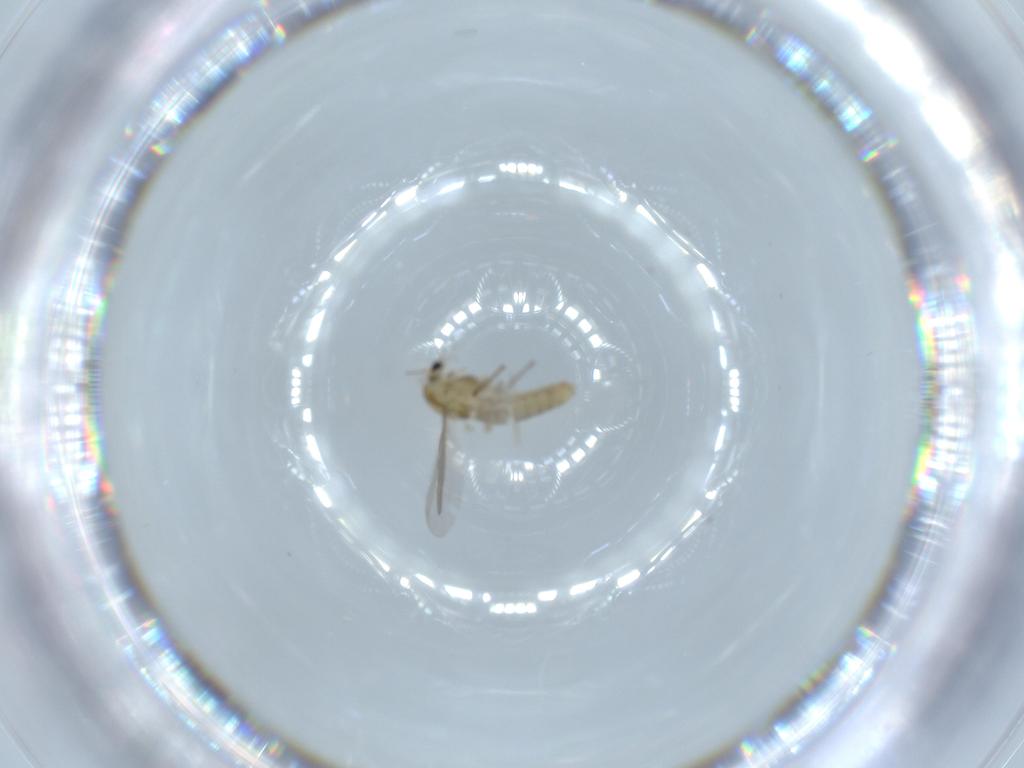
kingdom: Animalia
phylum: Arthropoda
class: Insecta
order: Diptera
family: Chironomidae
